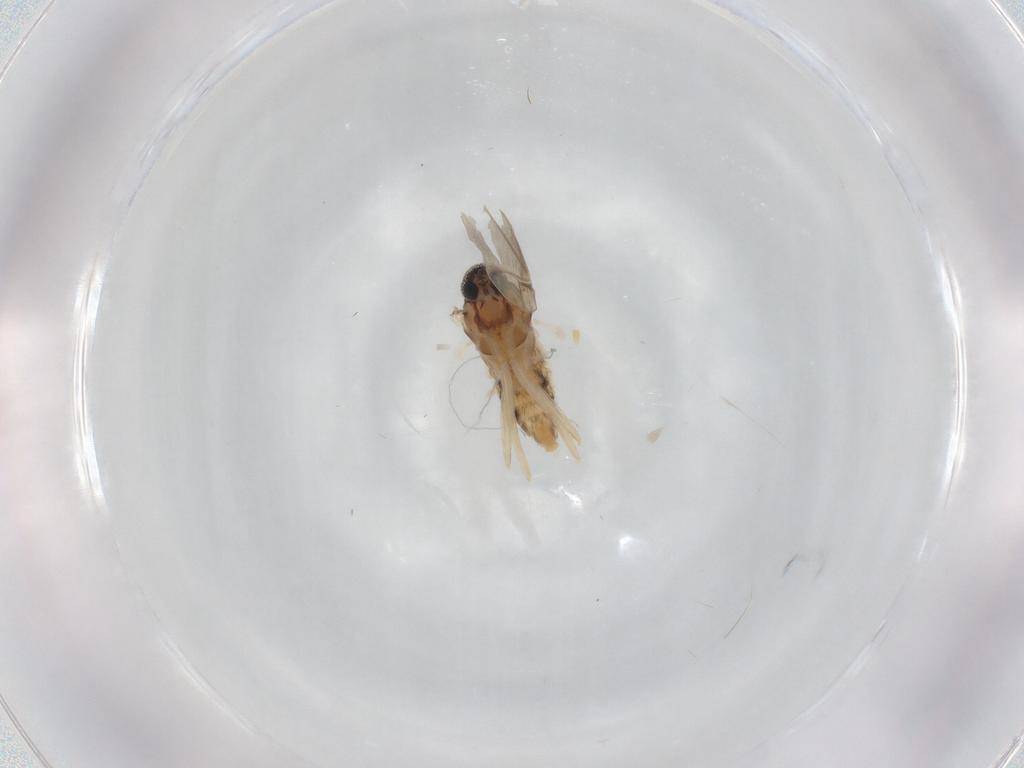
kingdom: Animalia
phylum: Arthropoda
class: Insecta
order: Diptera
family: Cecidomyiidae
